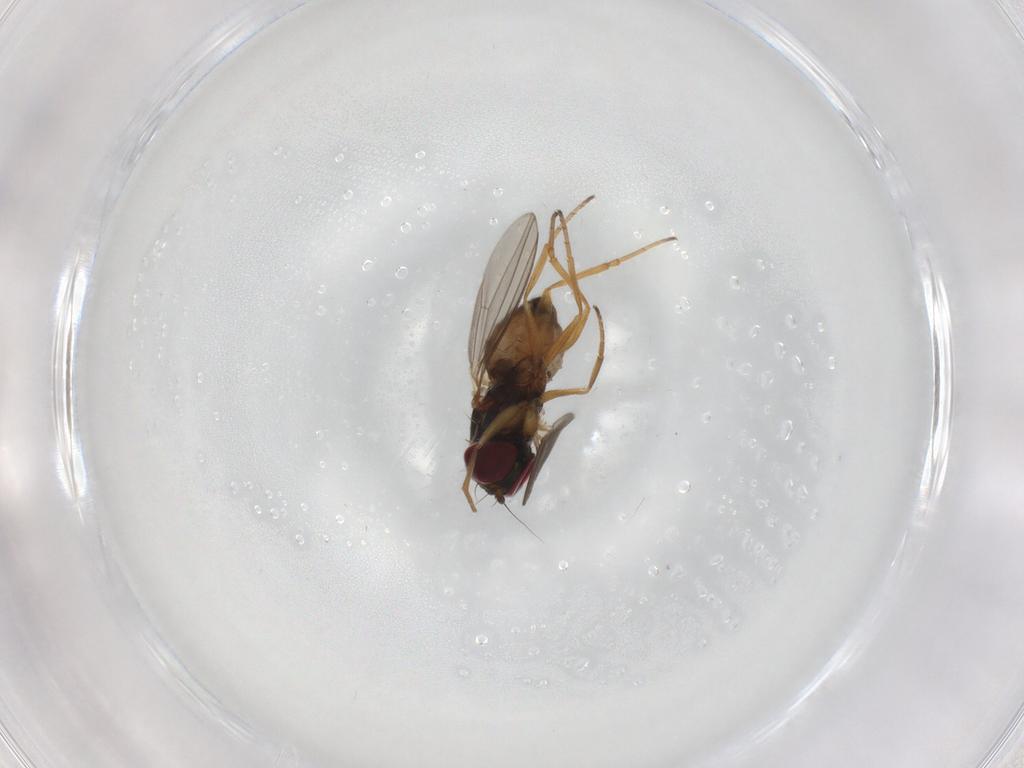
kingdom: Animalia
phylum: Arthropoda
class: Insecta
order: Diptera
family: Dolichopodidae
